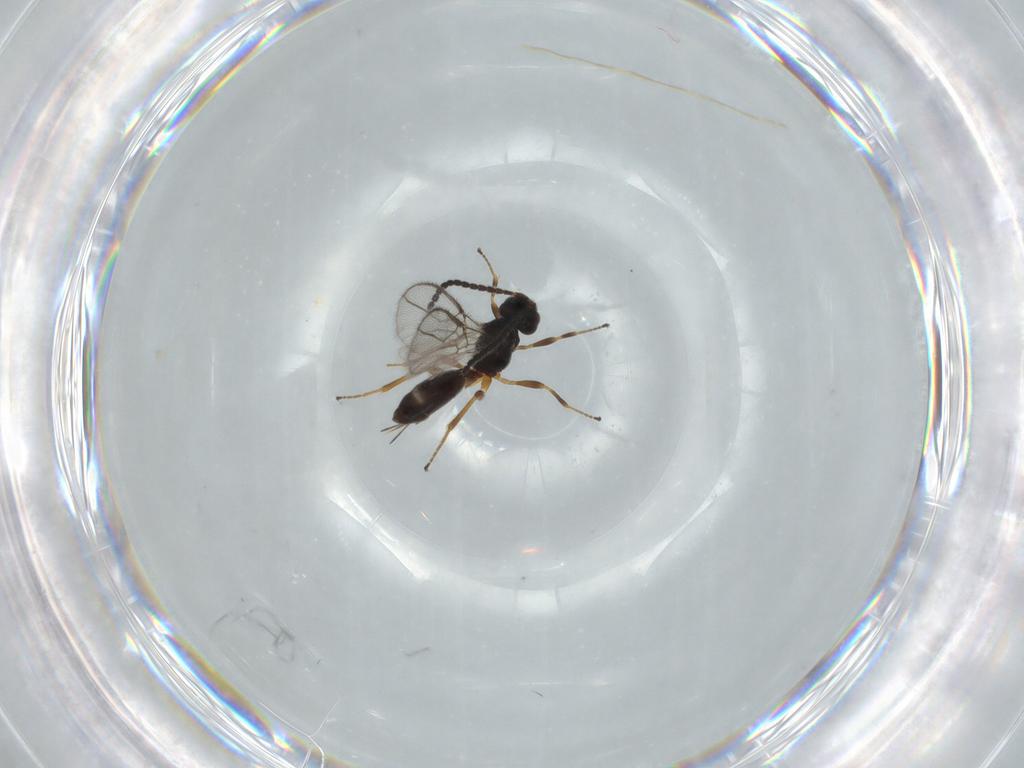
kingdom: Animalia
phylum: Arthropoda
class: Insecta
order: Hymenoptera
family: Braconidae
